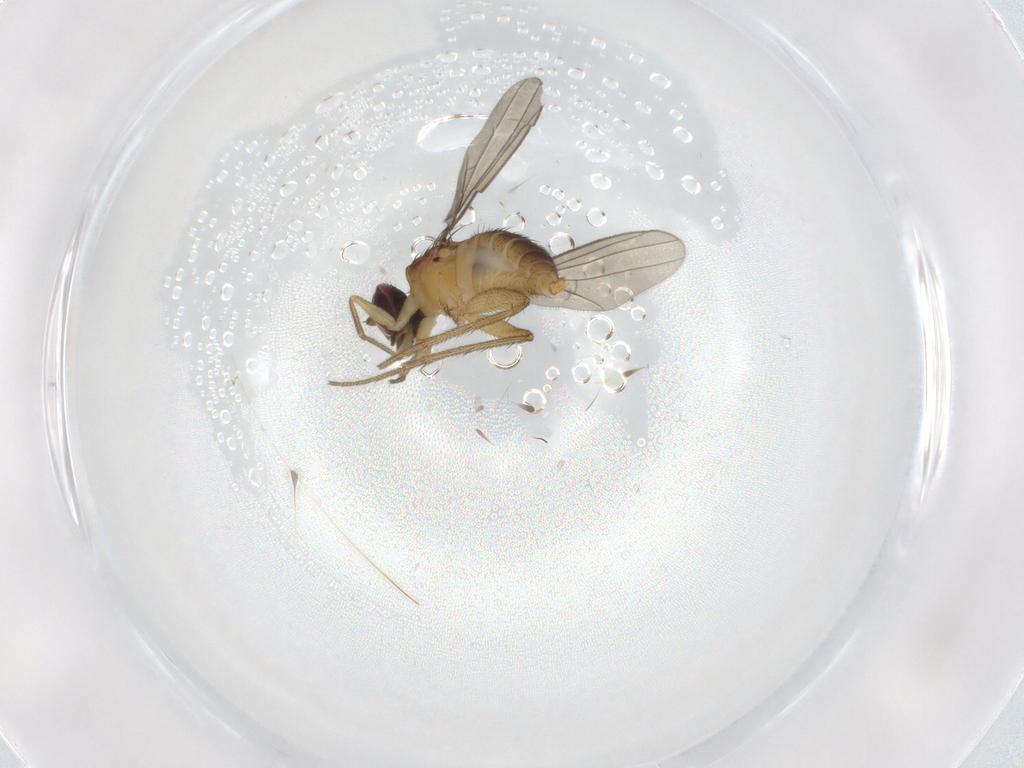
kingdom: Animalia
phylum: Arthropoda
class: Insecta
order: Diptera
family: Dolichopodidae
